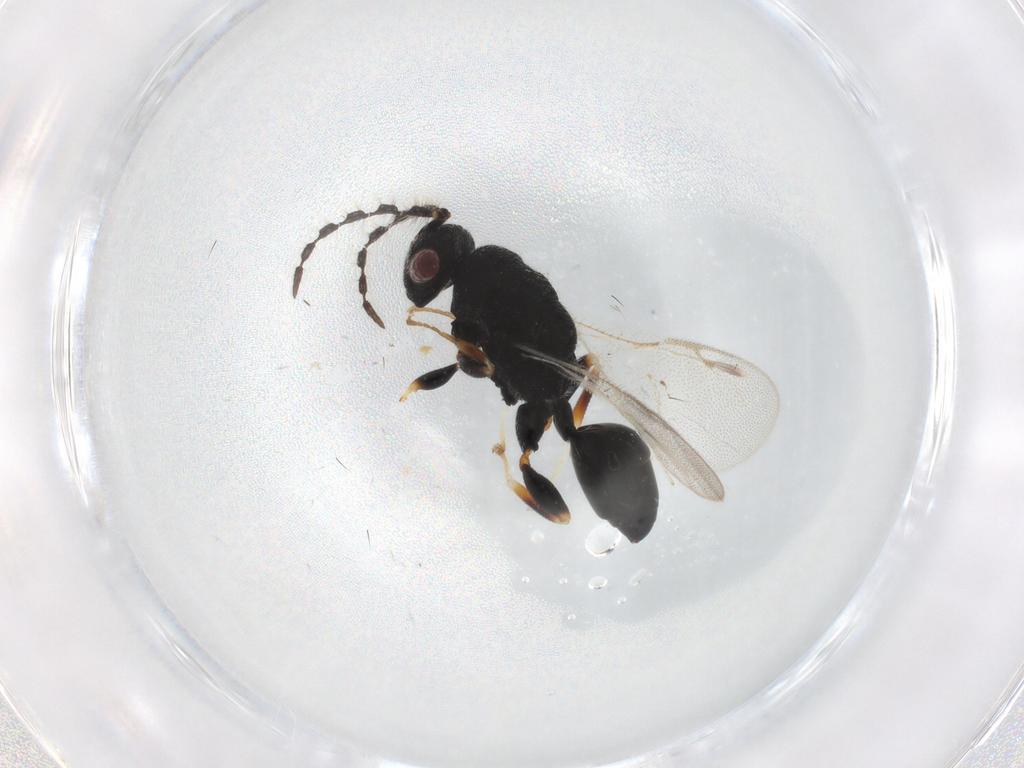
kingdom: Animalia
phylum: Arthropoda
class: Insecta
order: Hymenoptera
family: Eurytomidae
